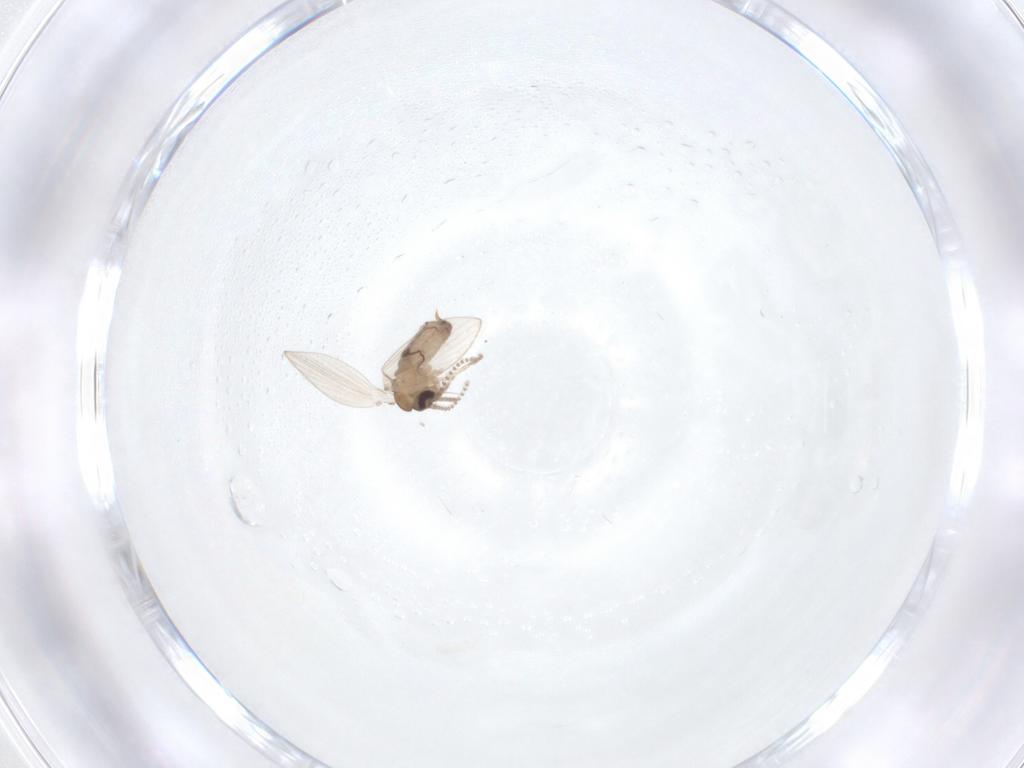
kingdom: Animalia
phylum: Arthropoda
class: Insecta
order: Diptera
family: Psychodidae
